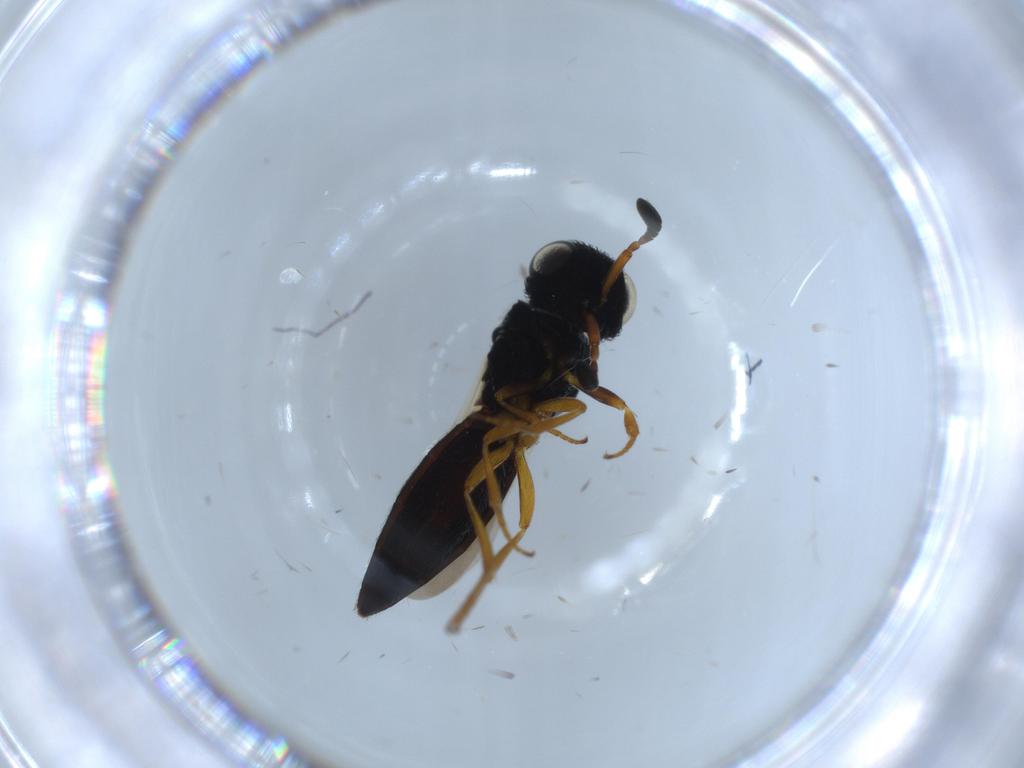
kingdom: Animalia
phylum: Arthropoda
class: Insecta
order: Hymenoptera
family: Scelionidae
